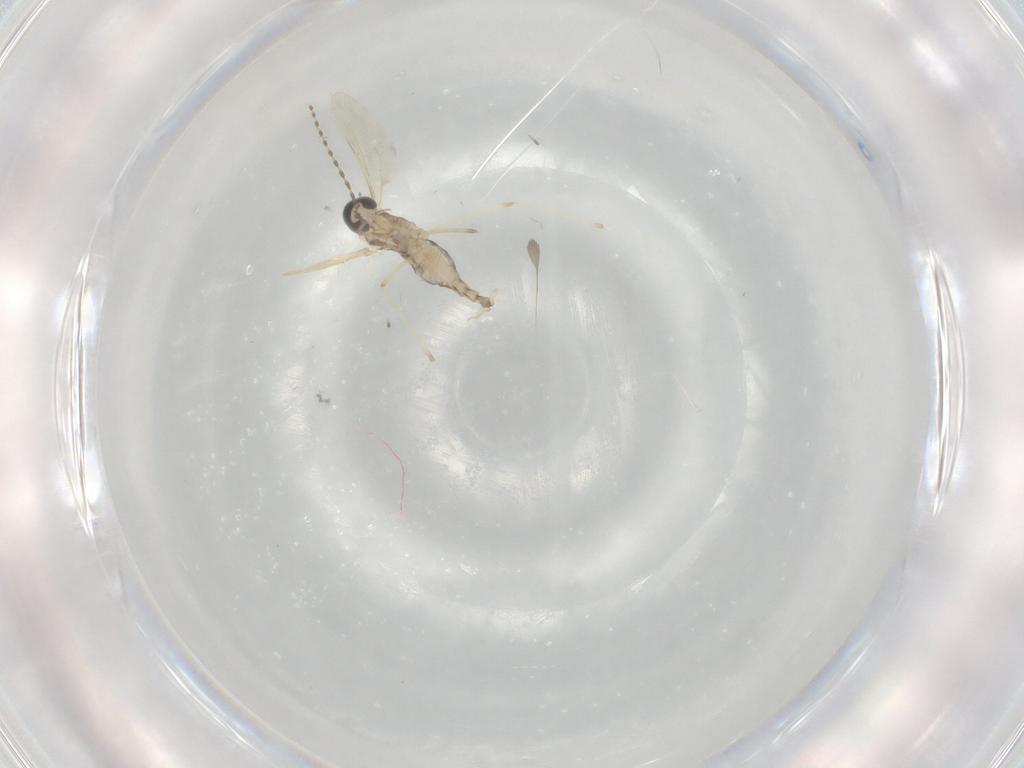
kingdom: Animalia
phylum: Arthropoda
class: Insecta
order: Diptera
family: Cecidomyiidae
